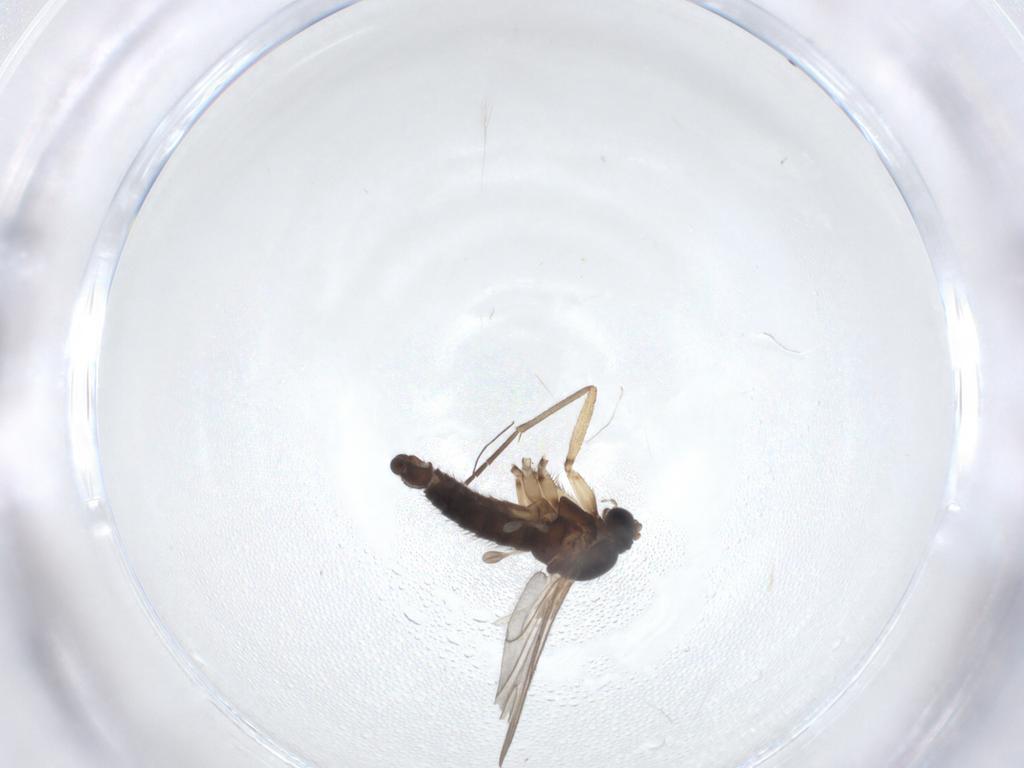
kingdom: Animalia
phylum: Arthropoda
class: Insecta
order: Diptera
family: Sciaridae
